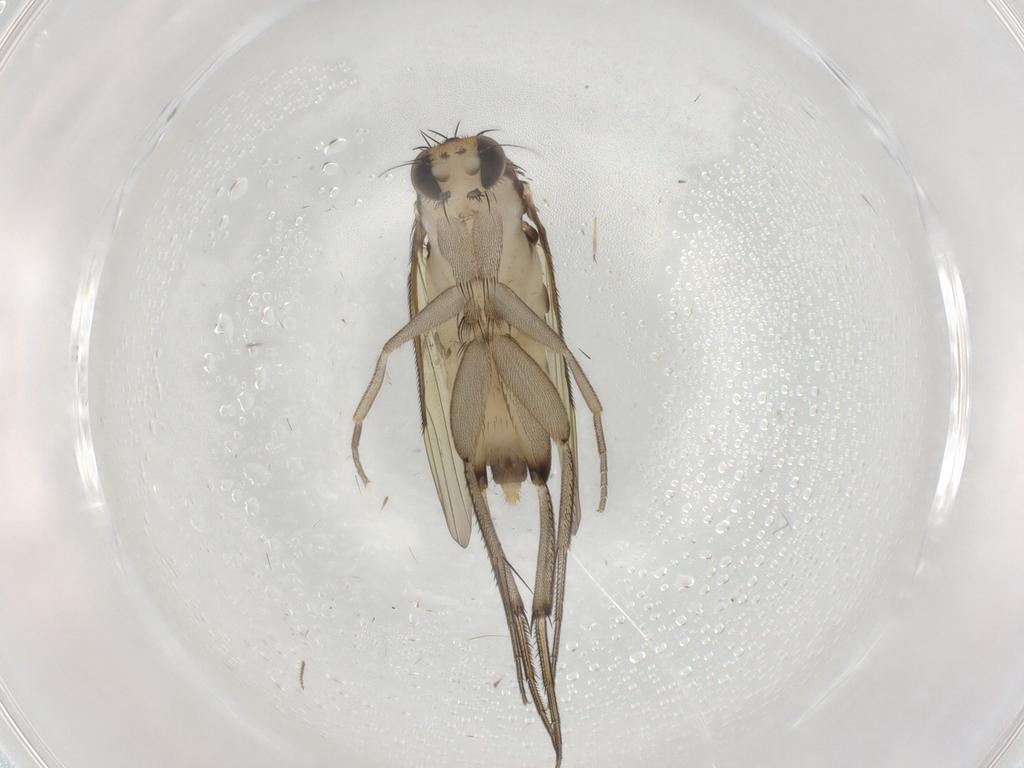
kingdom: Animalia
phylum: Arthropoda
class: Insecta
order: Diptera
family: Phoridae
